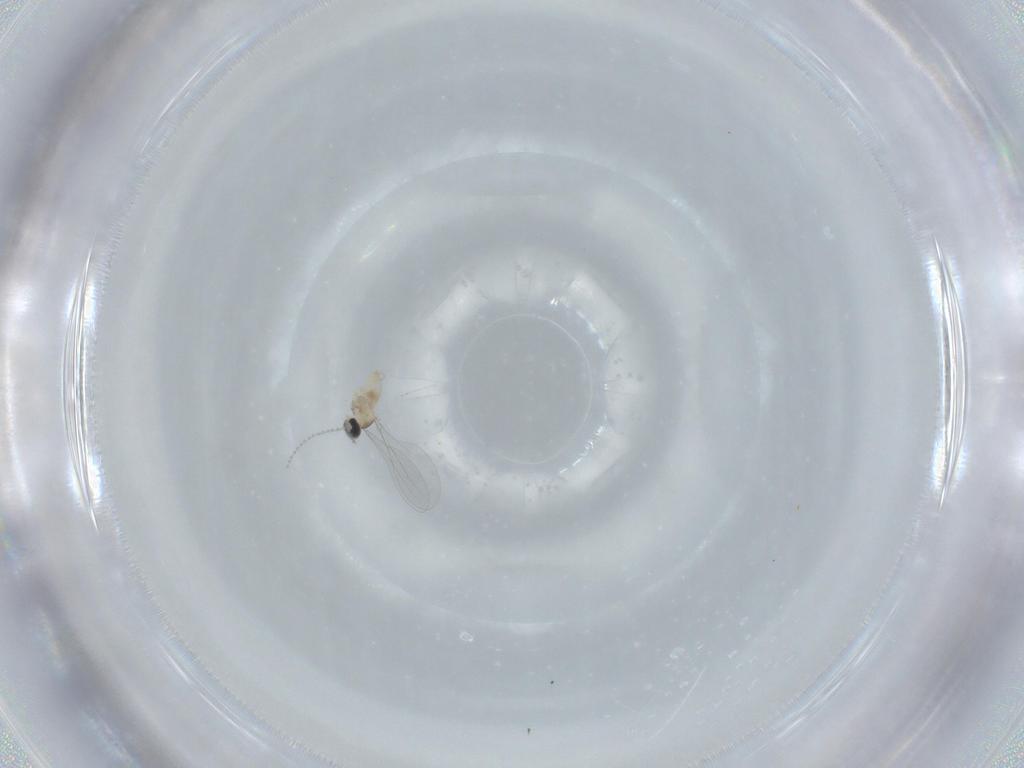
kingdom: Animalia
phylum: Arthropoda
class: Insecta
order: Diptera
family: Cecidomyiidae
